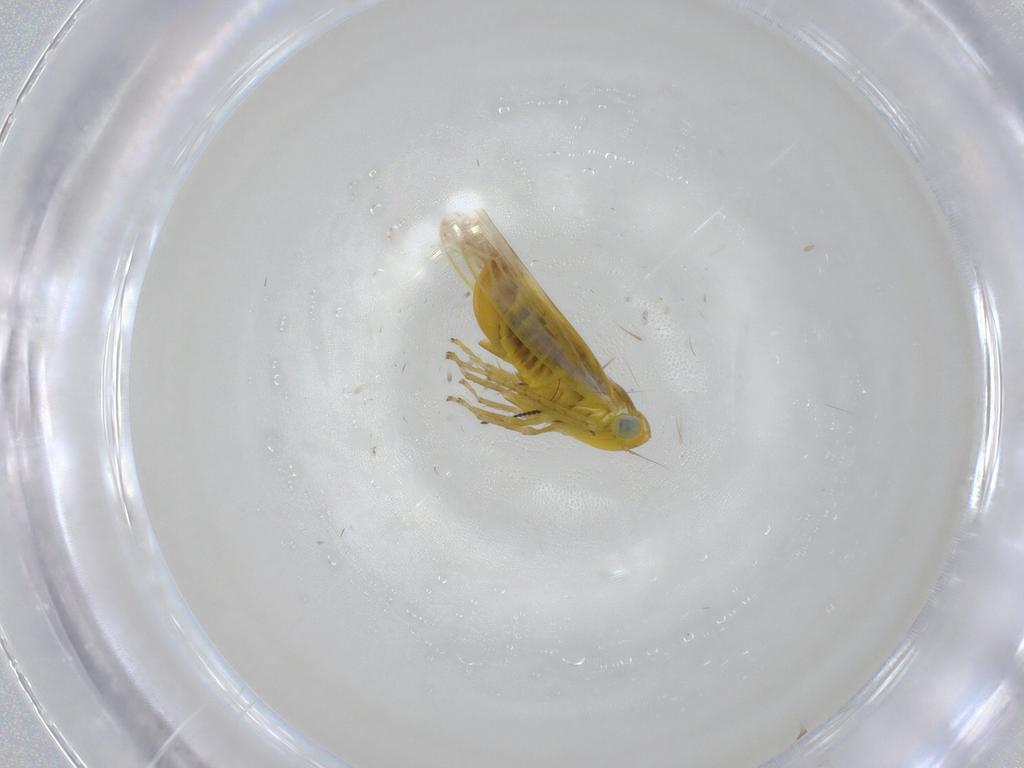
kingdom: Animalia
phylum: Arthropoda
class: Insecta
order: Hemiptera
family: Cicadellidae
